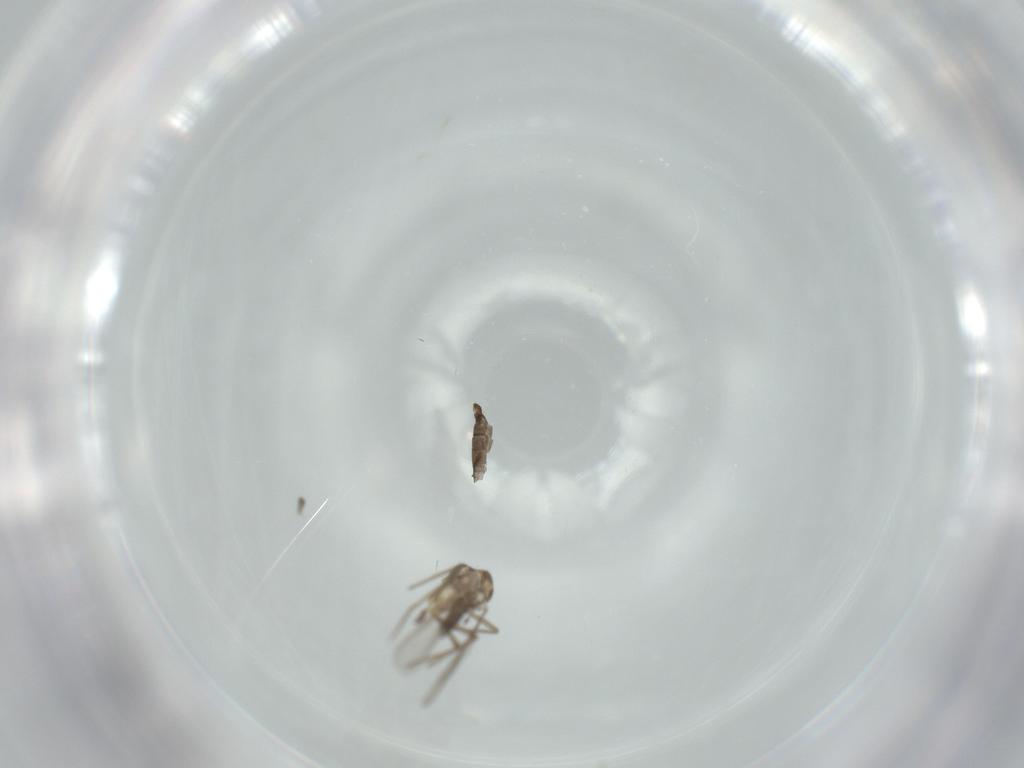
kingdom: Animalia
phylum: Arthropoda
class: Insecta
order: Diptera
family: Chironomidae
